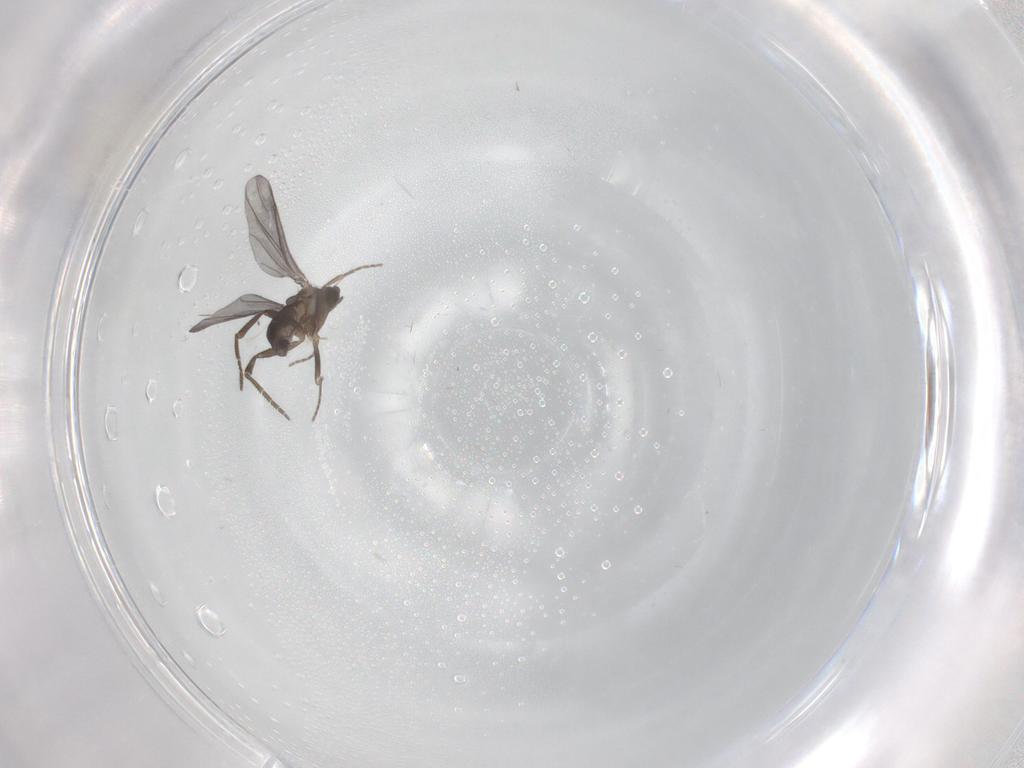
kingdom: Animalia
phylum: Arthropoda
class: Insecta
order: Diptera
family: Phoridae
